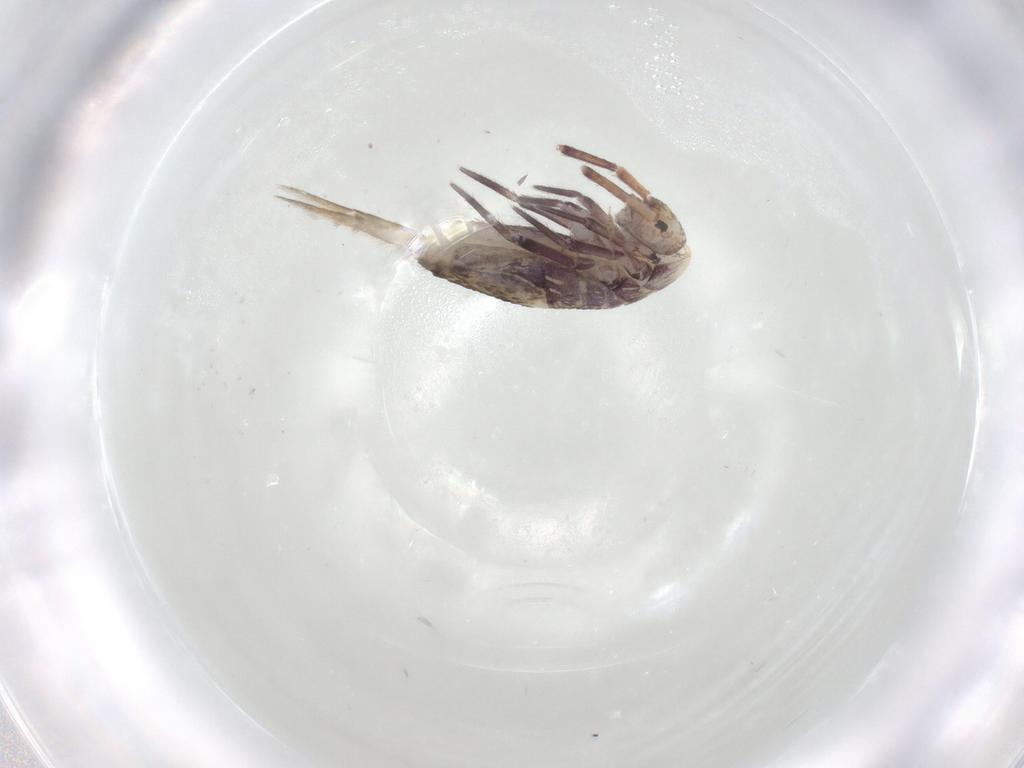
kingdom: Animalia
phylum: Arthropoda
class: Collembola
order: Entomobryomorpha
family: Entomobryidae
